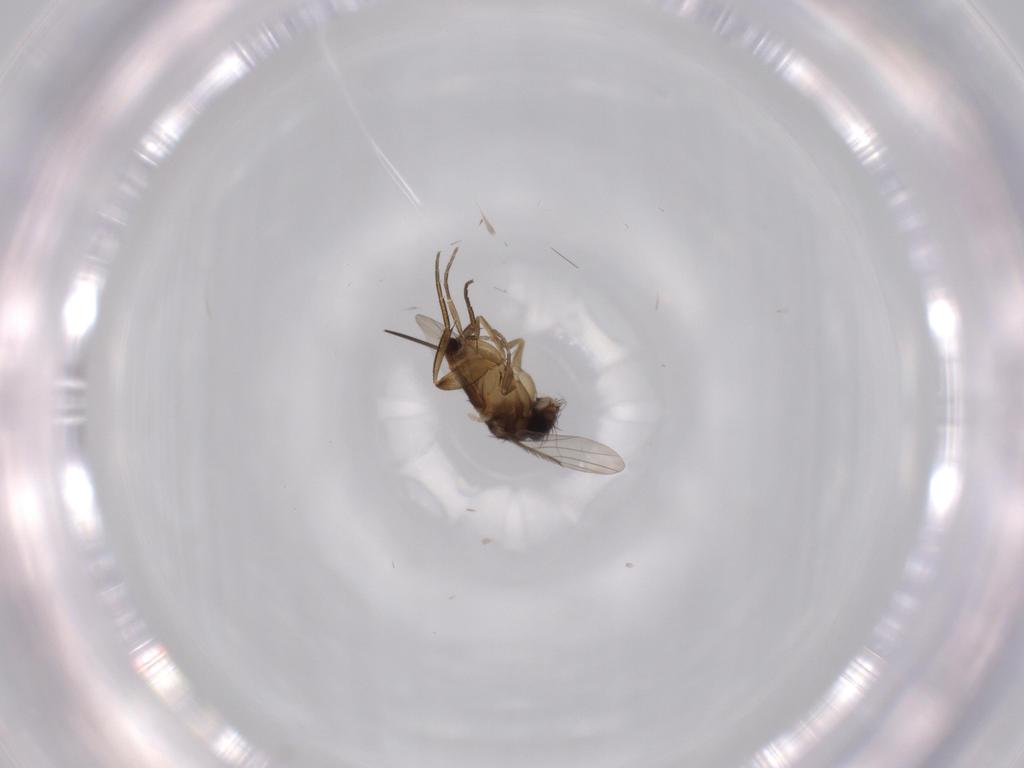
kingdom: Animalia
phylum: Arthropoda
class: Insecta
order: Diptera
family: Phoridae
